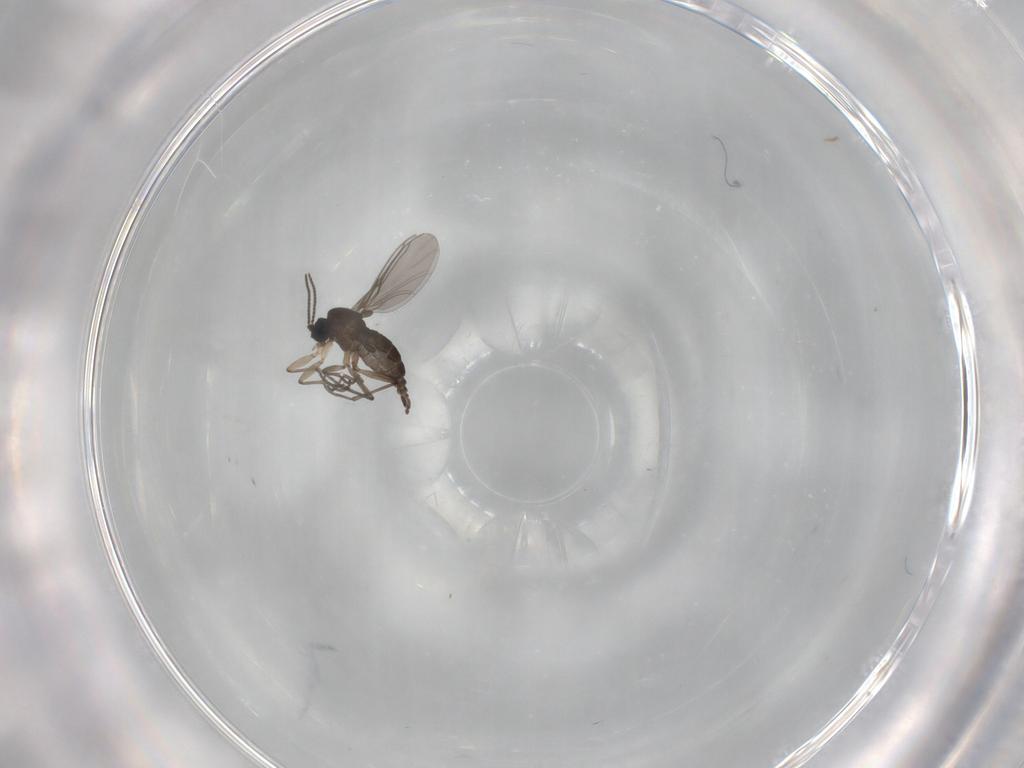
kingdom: Animalia
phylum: Arthropoda
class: Insecta
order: Diptera
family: Sciaridae
